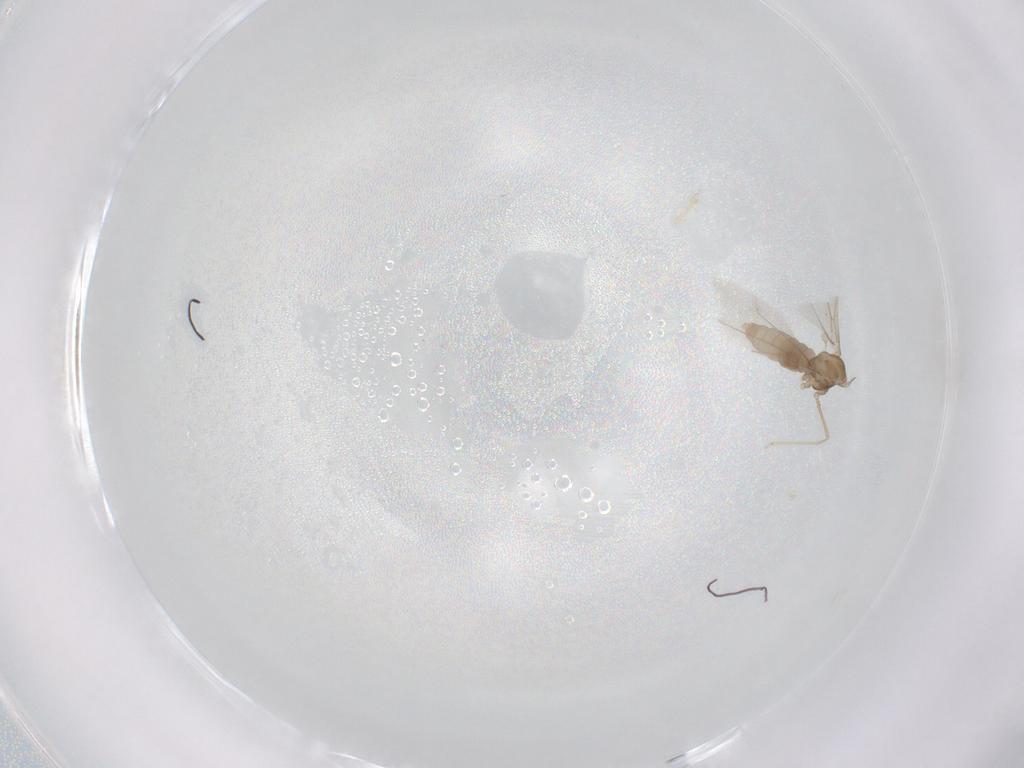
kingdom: Animalia
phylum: Arthropoda
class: Insecta
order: Diptera
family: Cecidomyiidae
